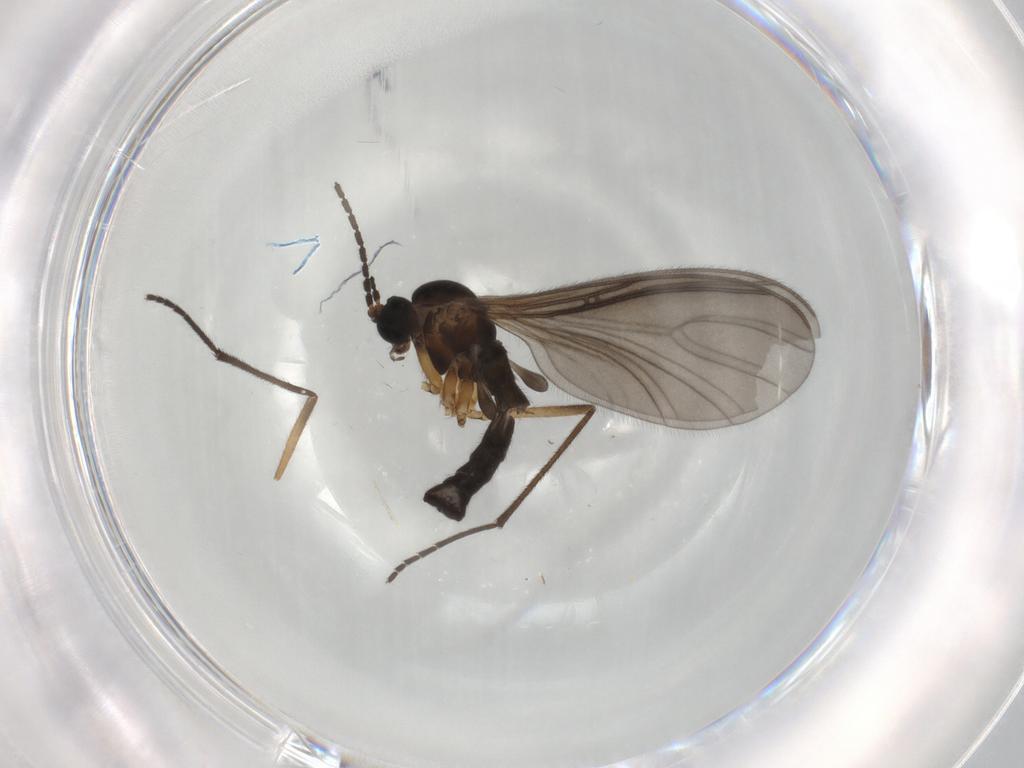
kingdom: Animalia
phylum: Arthropoda
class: Insecta
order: Diptera
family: Sciaridae
